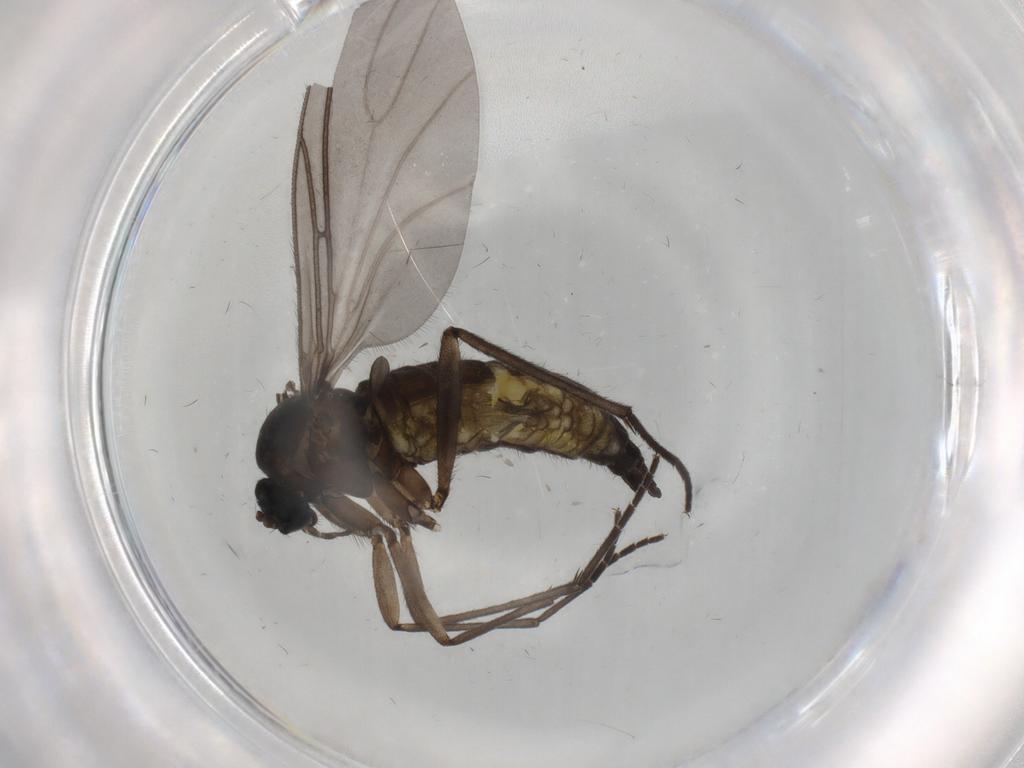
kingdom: Animalia
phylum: Arthropoda
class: Insecta
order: Diptera
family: Sciaridae
